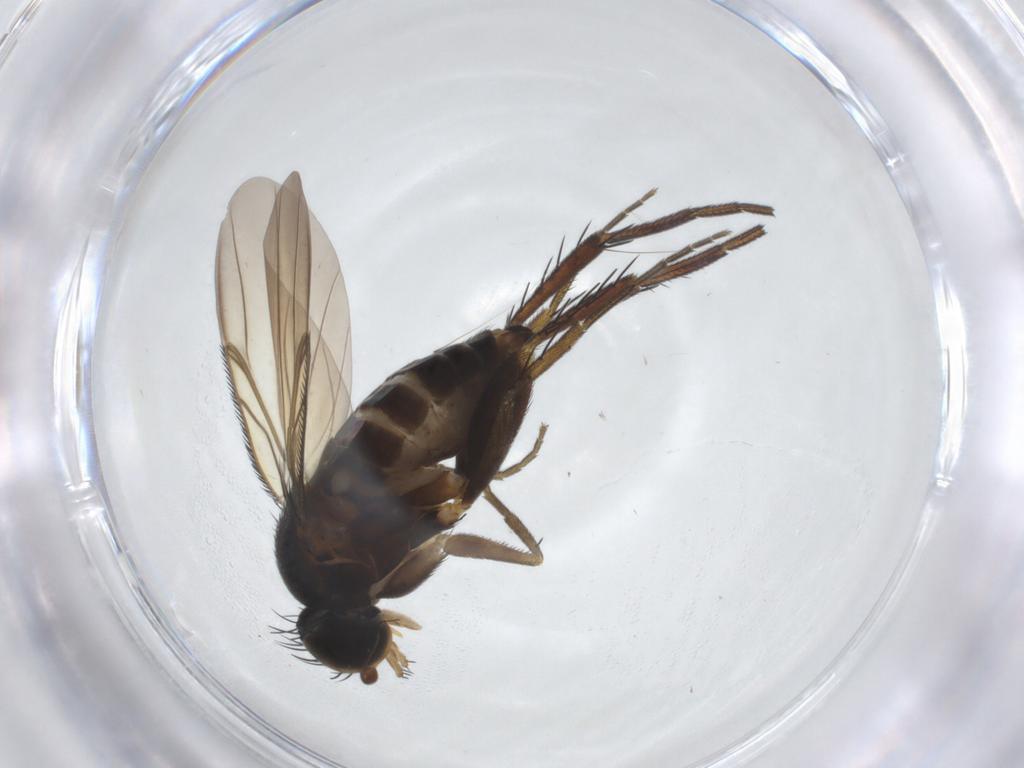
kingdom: Animalia
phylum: Arthropoda
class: Insecta
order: Diptera
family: Phoridae
